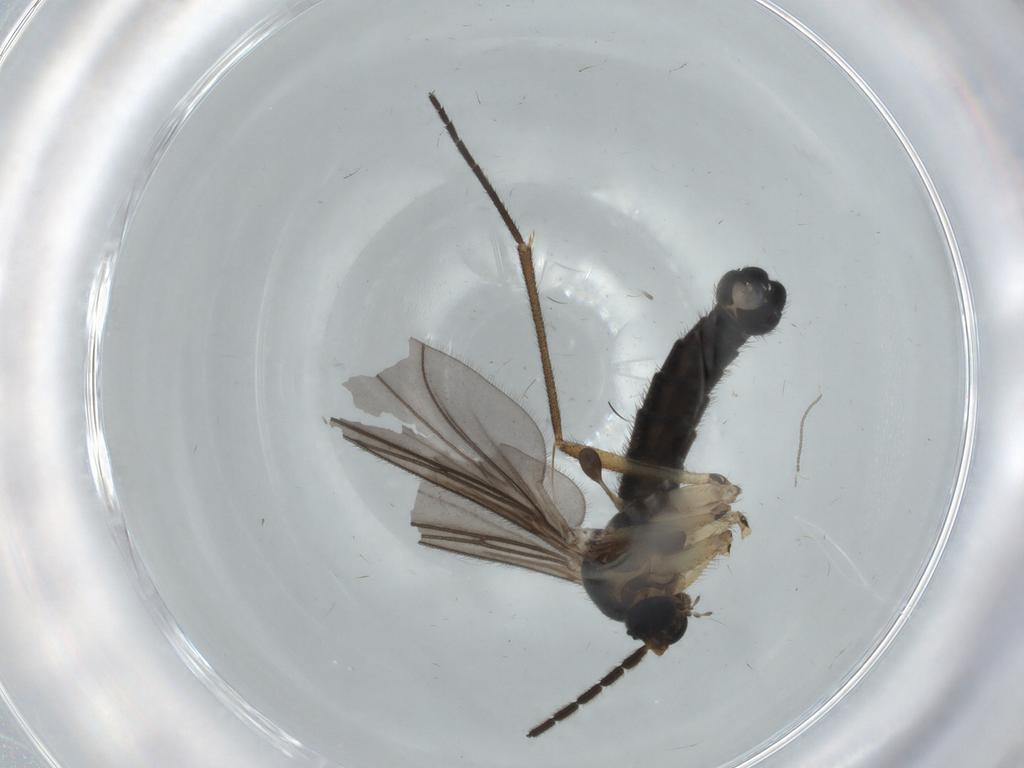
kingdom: Animalia
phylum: Arthropoda
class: Insecta
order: Diptera
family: Sciaridae
